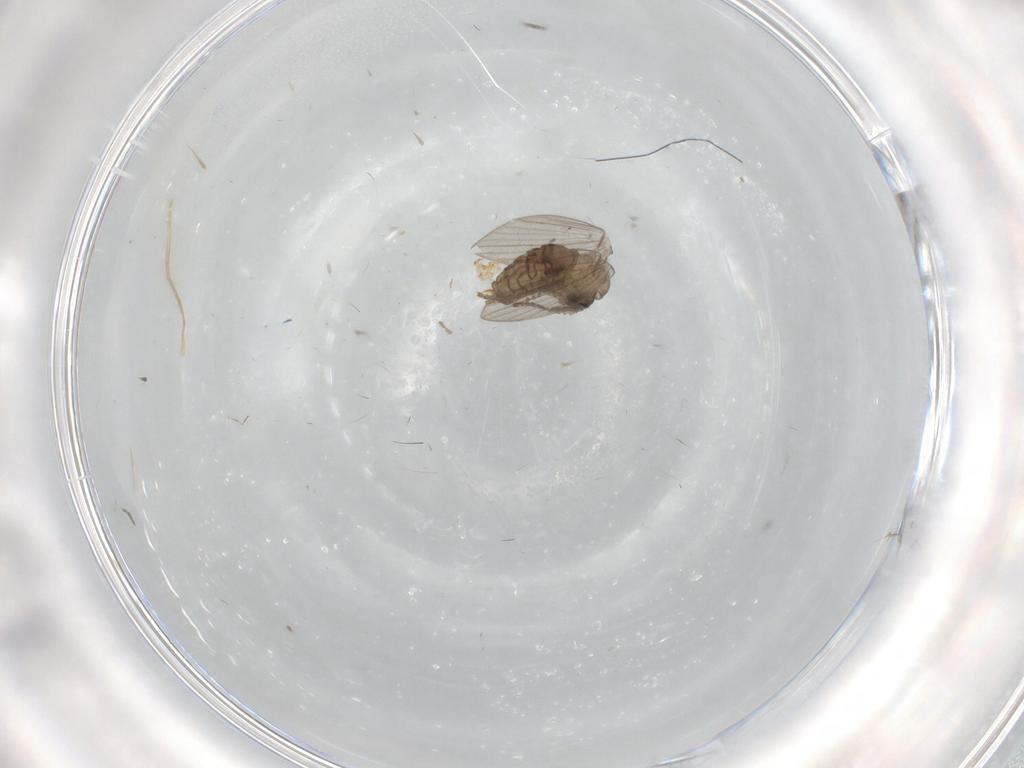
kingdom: Animalia
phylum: Arthropoda
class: Insecta
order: Diptera
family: Psychodidae
